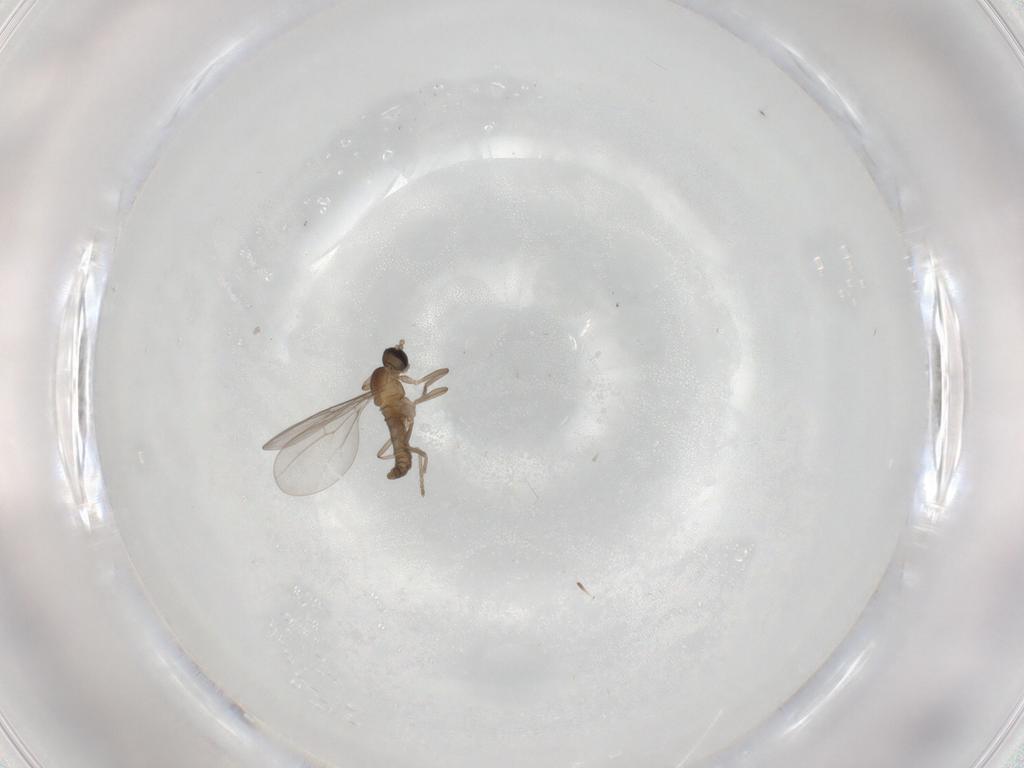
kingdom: Animalia
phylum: Arthropoda
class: Insecta
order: Diptera
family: Cecidomyiidae
